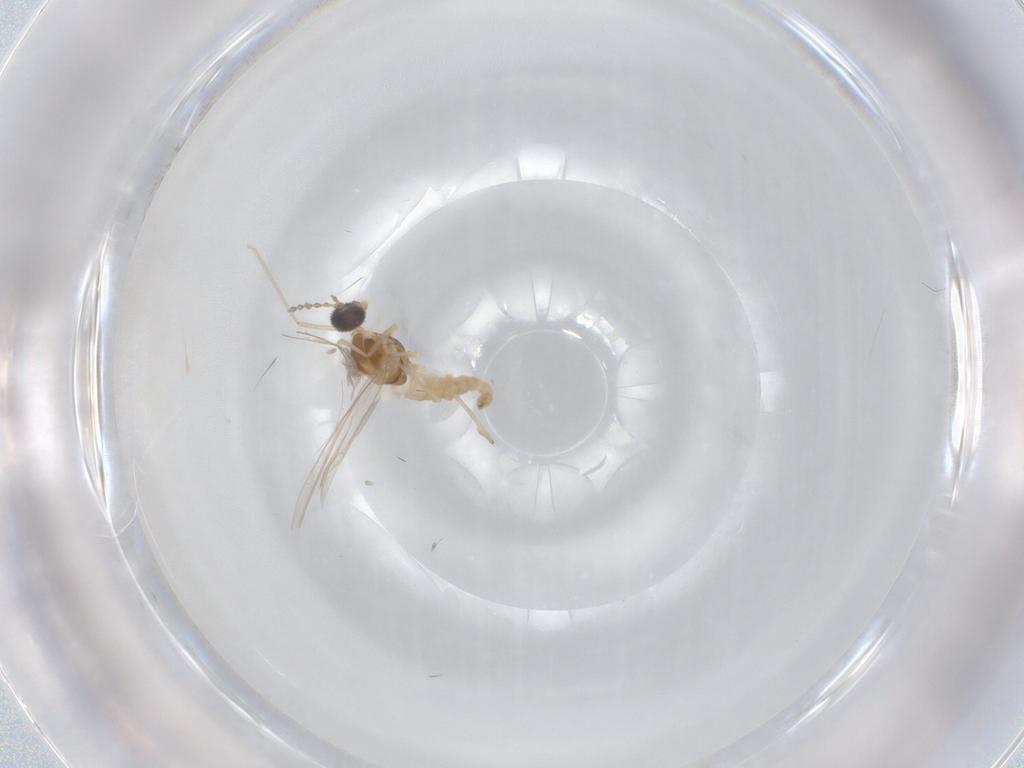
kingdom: Animalia
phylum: Arthropoda
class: Insecta
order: Diptera
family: Cecidomyiidae
